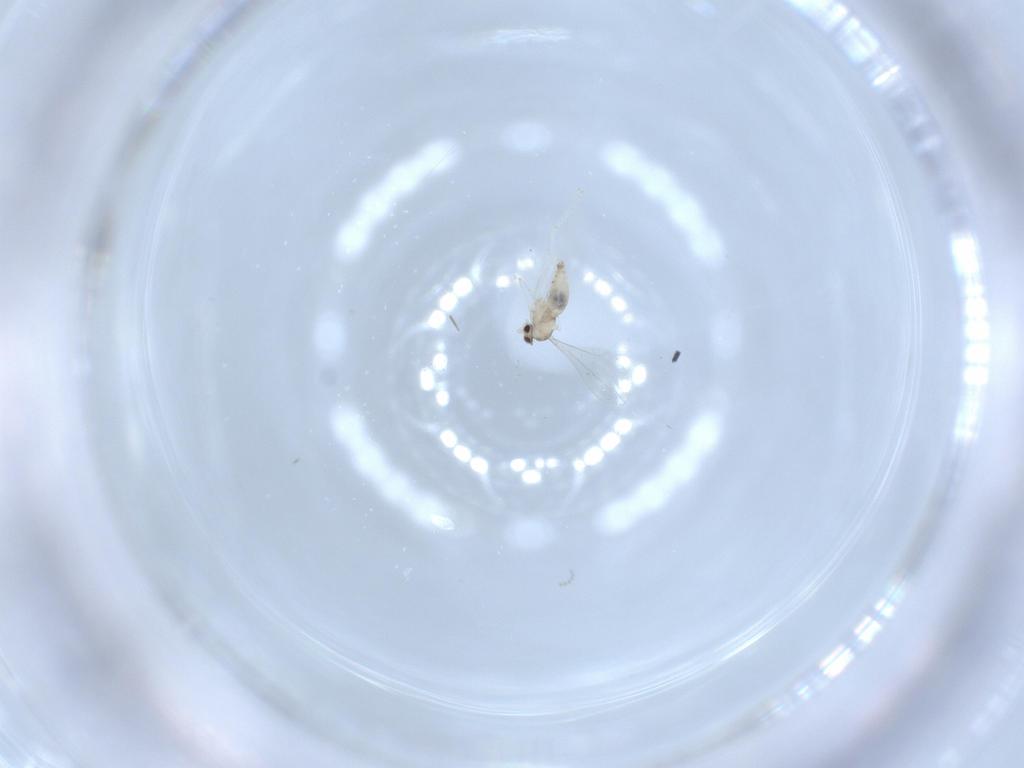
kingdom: Animalia
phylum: Arthropoda
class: Insecta
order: Diptera
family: Cecidomyiidae
